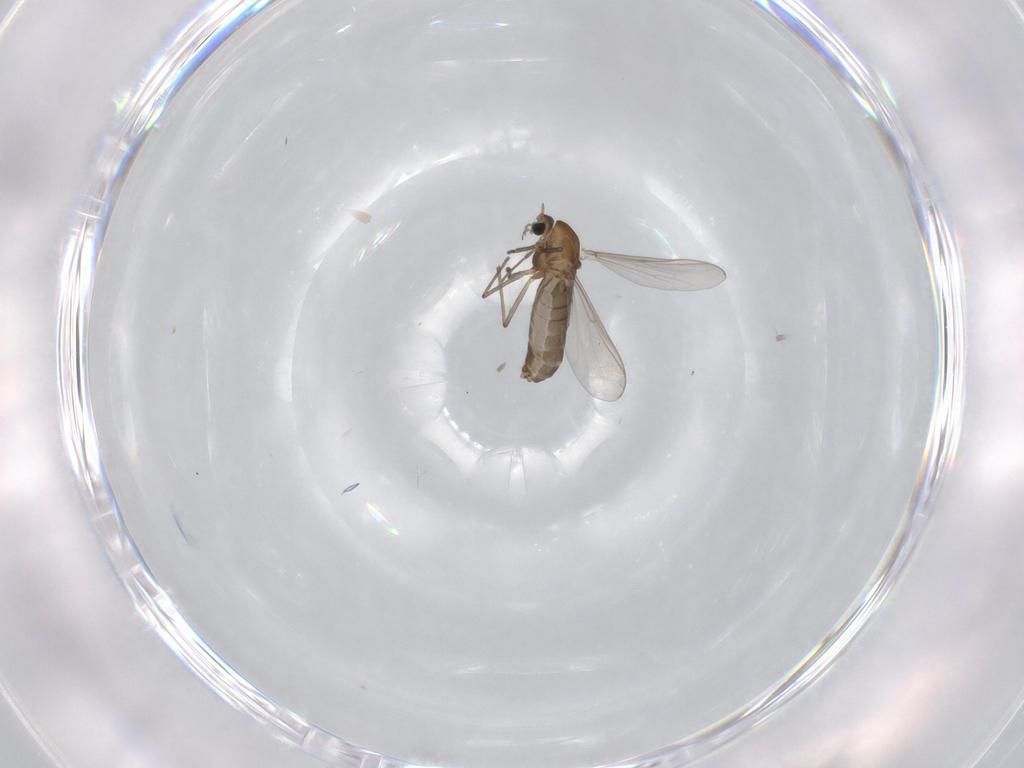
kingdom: Animalia
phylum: Arthropoda
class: Insecta
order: Diptera
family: Chironomidae
